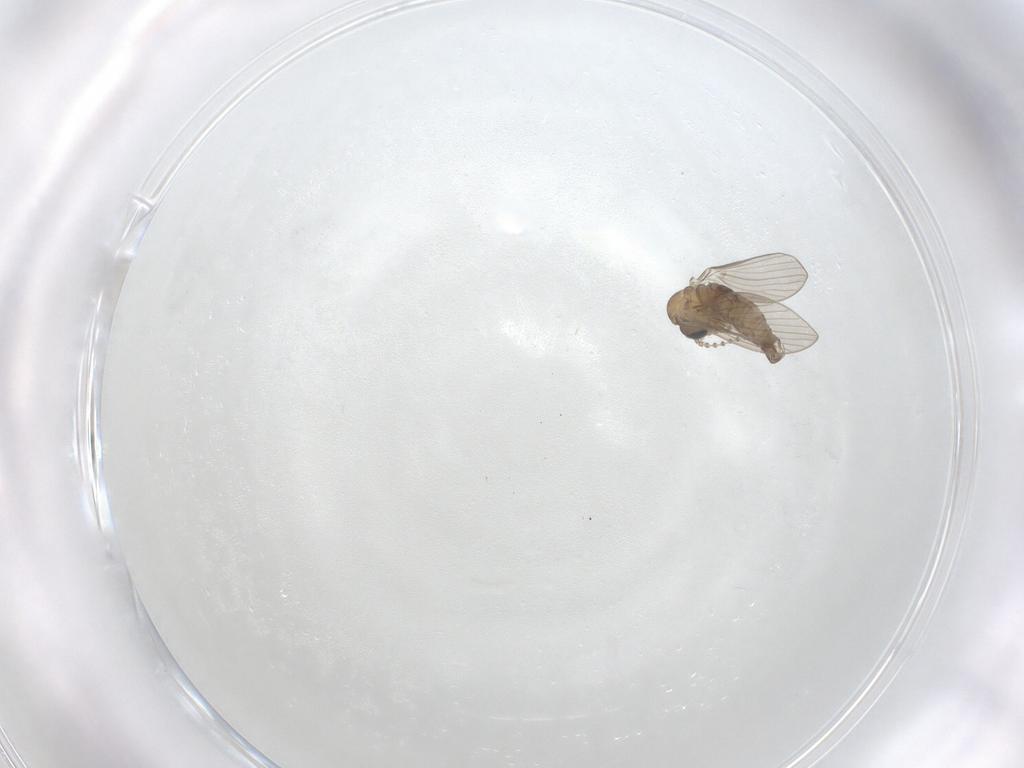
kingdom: Animalia
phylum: Arthropoda
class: Insecta
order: Diptera
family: Psychodidae
